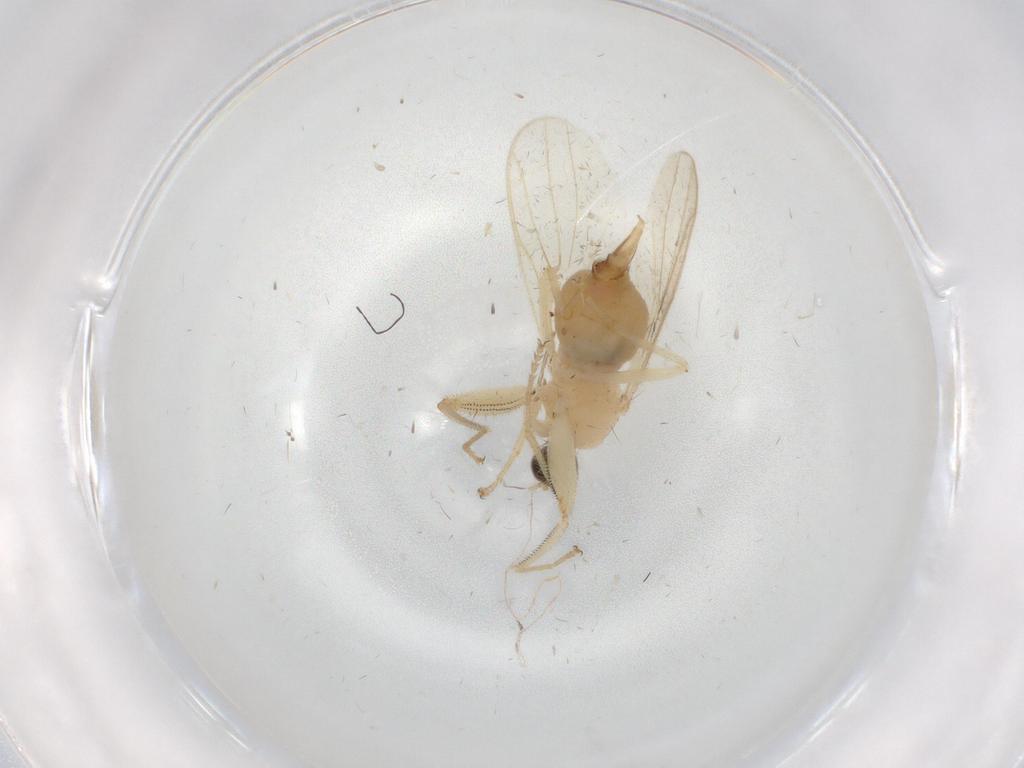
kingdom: Animalia
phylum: Arthropoda
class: Insecta
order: Diptera
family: Hybotidae
